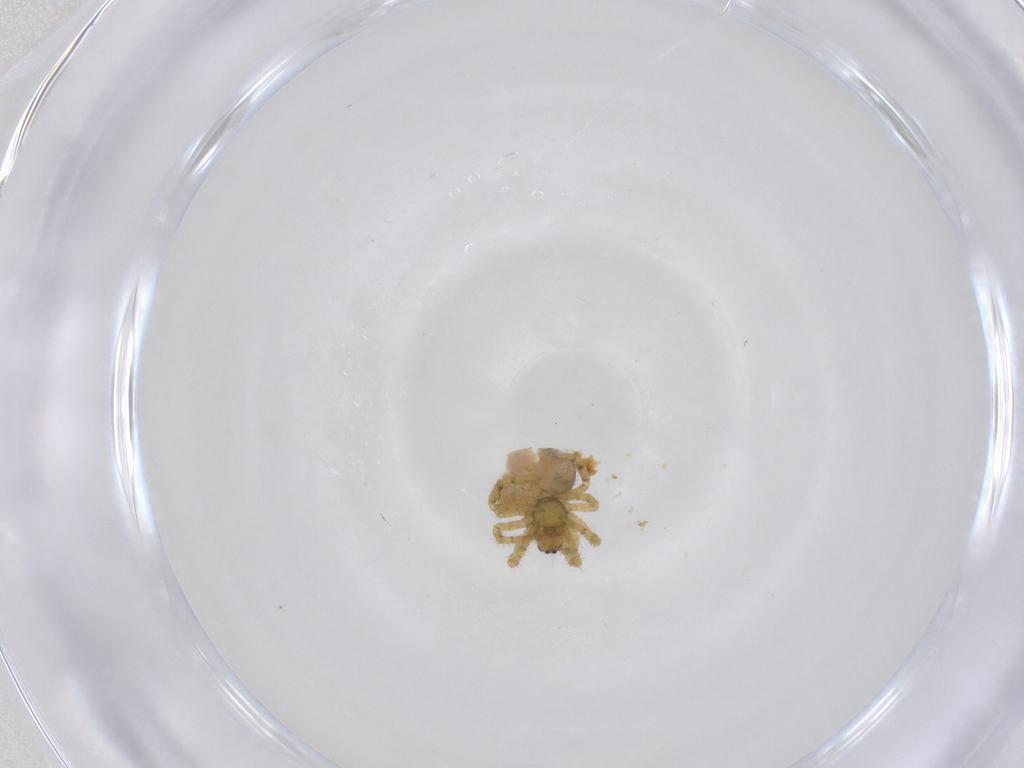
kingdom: Animalia
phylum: Arthropoda
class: Arachnida
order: Araneae
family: Theridiidae
